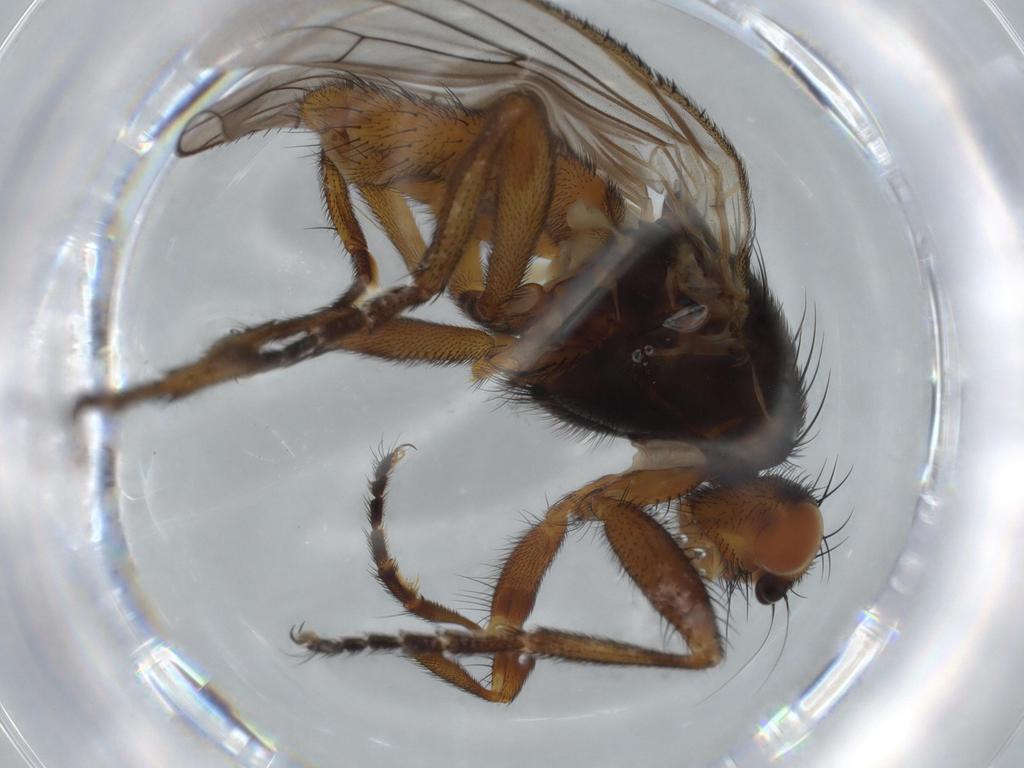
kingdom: Animalia
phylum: Arthropoda
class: Insecta
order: Diptera
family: Heleomyzidae
